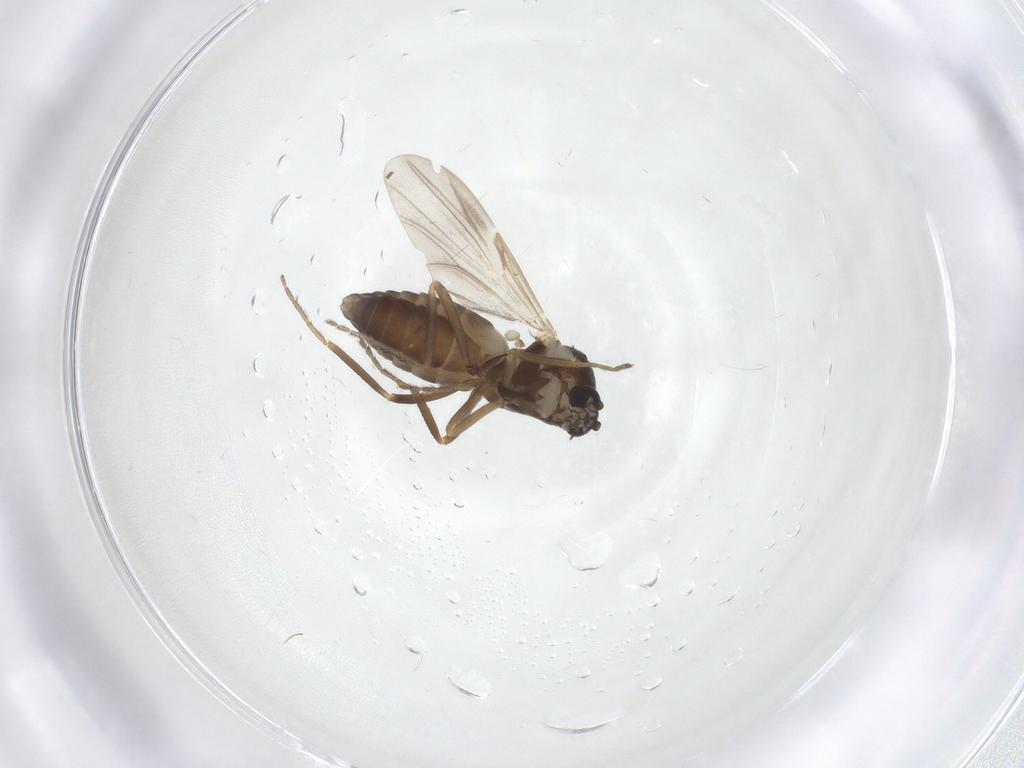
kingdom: Animalia
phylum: Arthropoda
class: Insecta
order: Diptera
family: Ceratopogonidae
